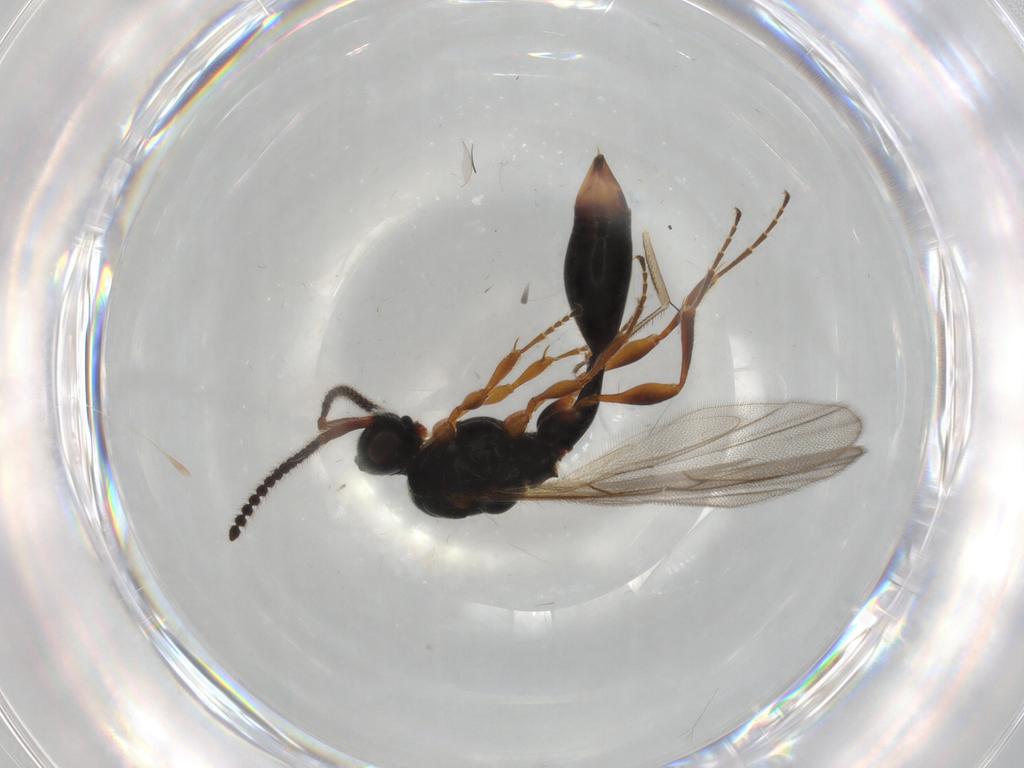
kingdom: Animalia
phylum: Arthropoda
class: Insecta
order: Hymenoptera
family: Diapriidae
